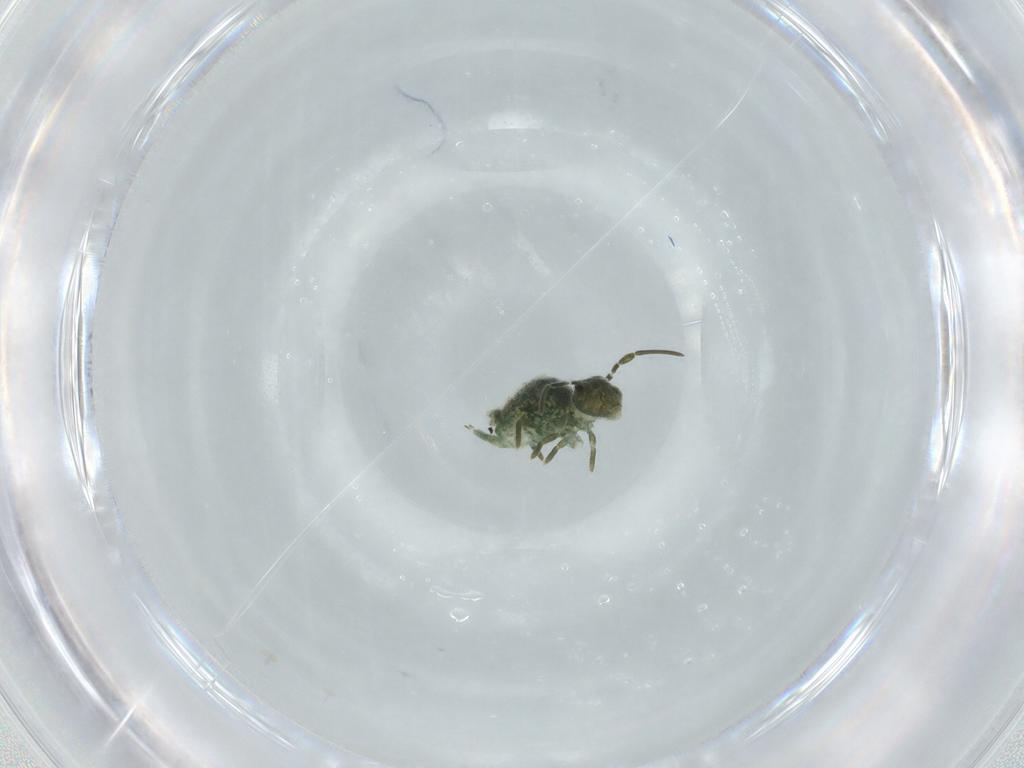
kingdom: Animalia
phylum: Arthropoda
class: Collembola
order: Symphypleona
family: Sminthuridae
